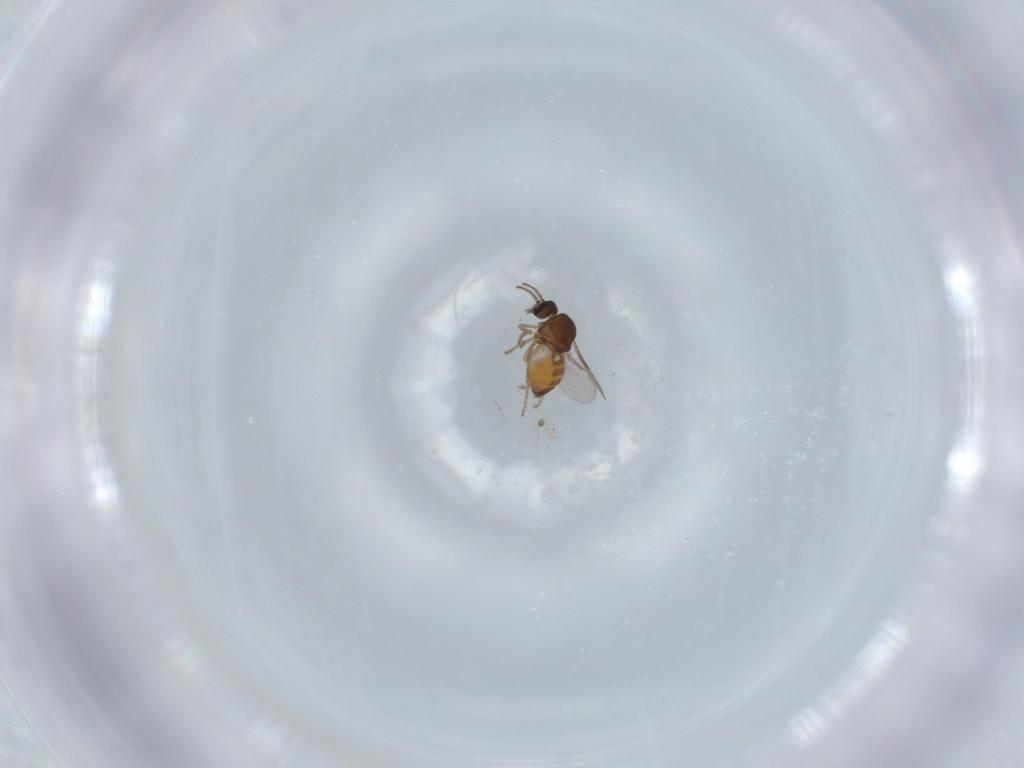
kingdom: Animalia
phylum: Arthropoda
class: Insecta
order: Diptera
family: Ceratopogonidae
